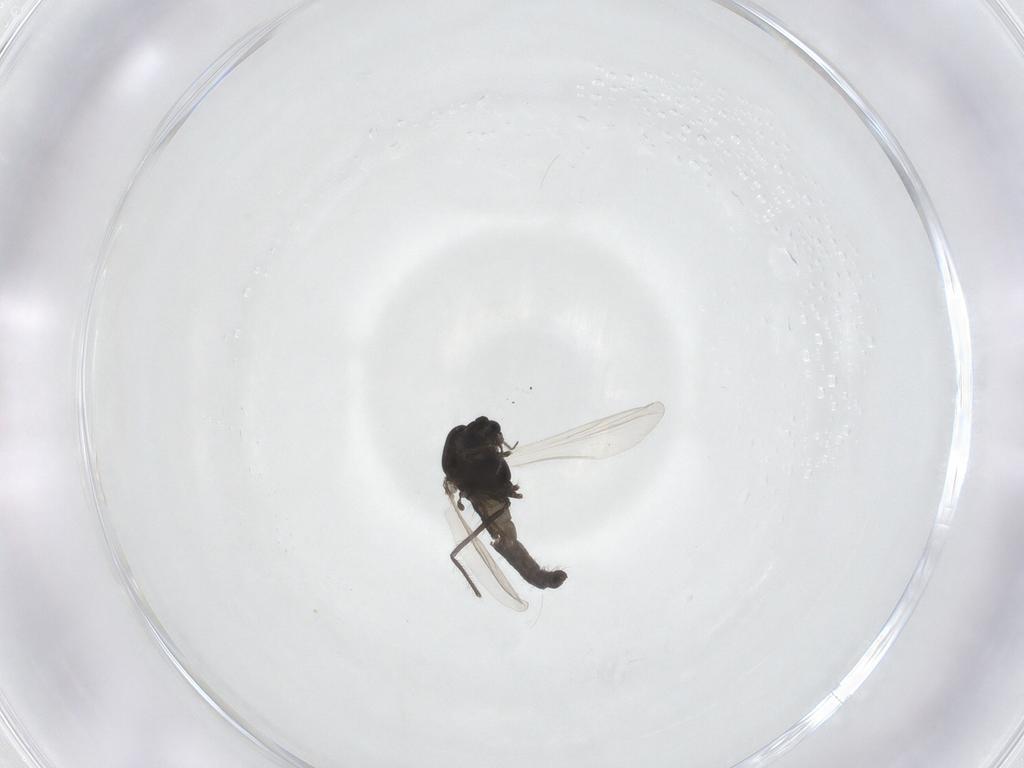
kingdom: Animalia
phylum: Arthropoda
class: Insecta
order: Diptera
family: Chironomidae
